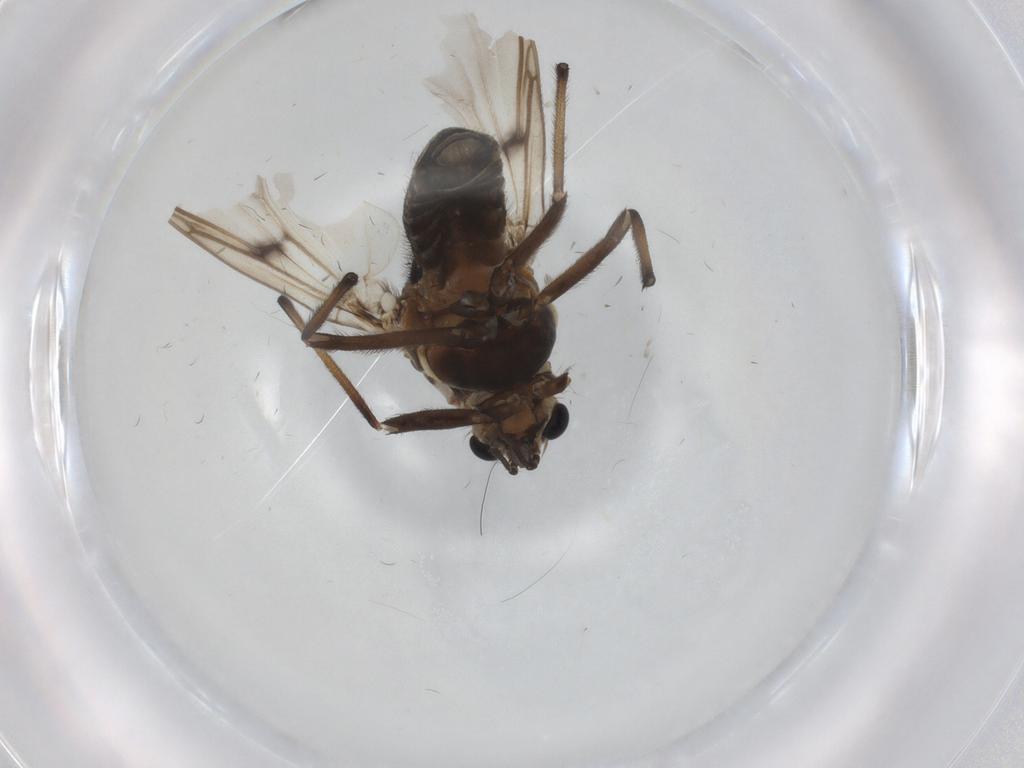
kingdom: Animalia
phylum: Arthropoda
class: Insecta
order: Diptera
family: Chironomidae
